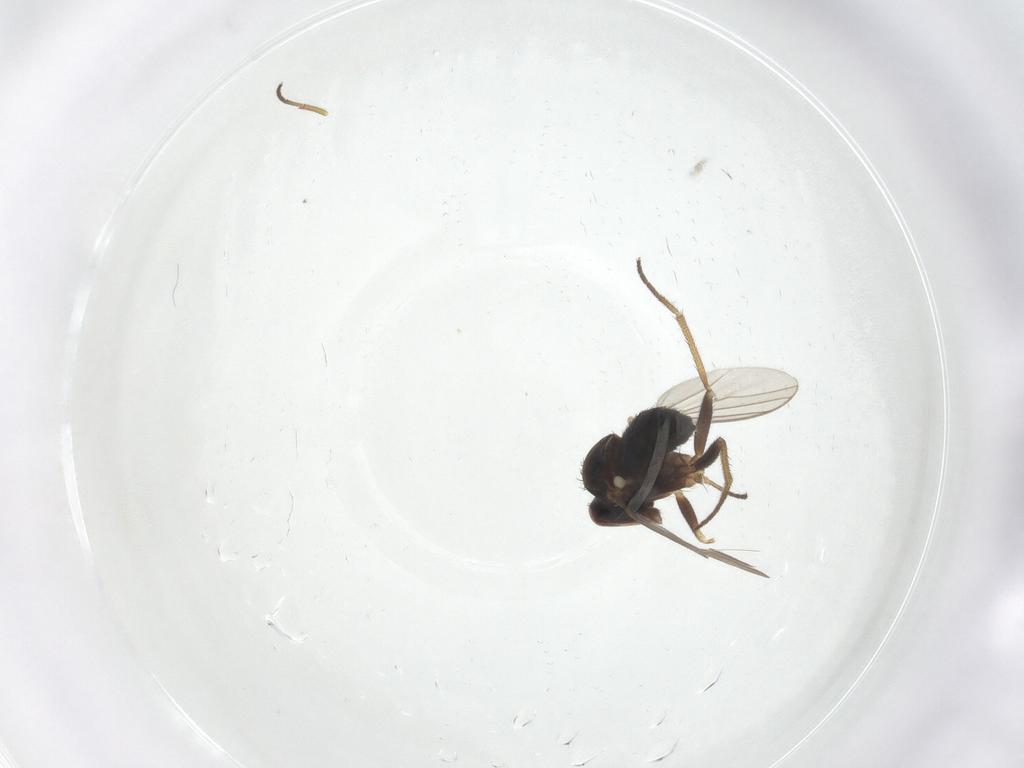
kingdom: Animalia
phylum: Arthropoda
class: Insecta
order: Diptera
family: Dolichopodidae
